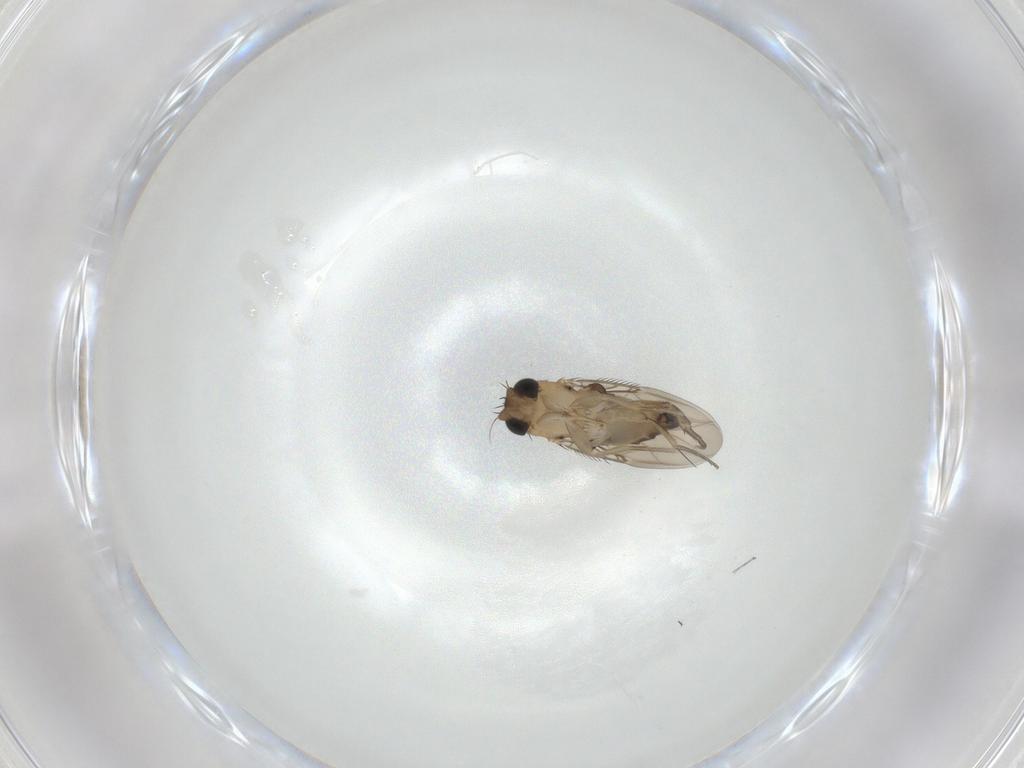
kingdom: Animalia
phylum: Arthropoda
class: Insecta
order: Diptera
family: Phoridae
